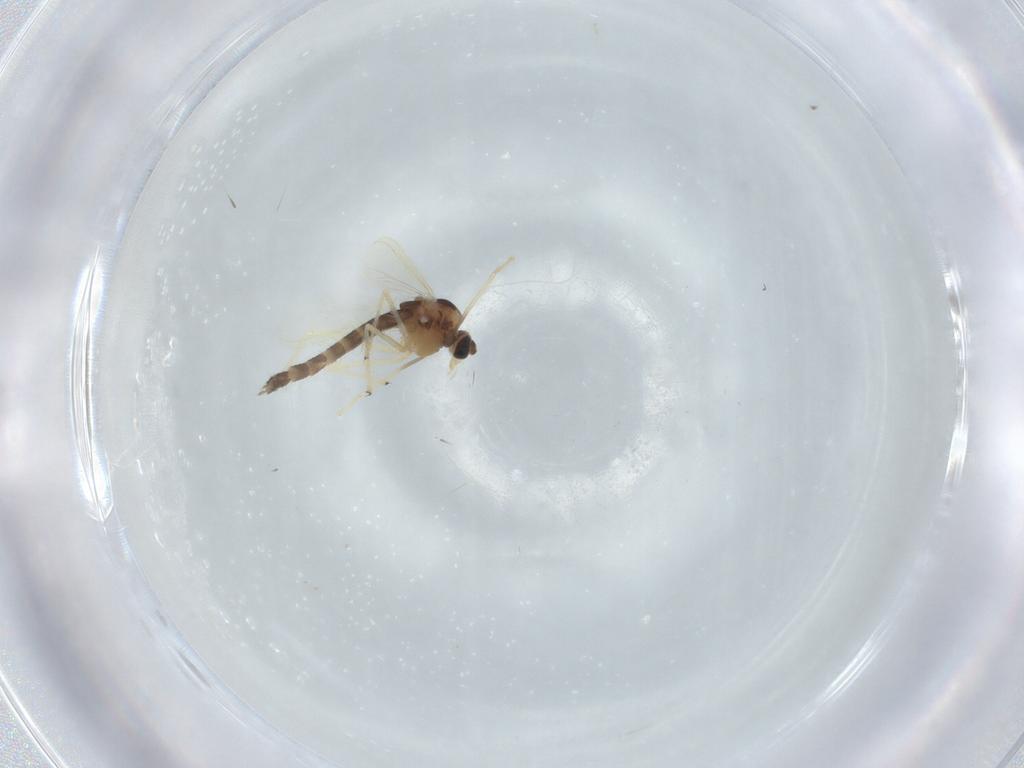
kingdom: Animalia
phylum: Arthropoda
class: Insecta
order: Diptera
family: Chironomidae
